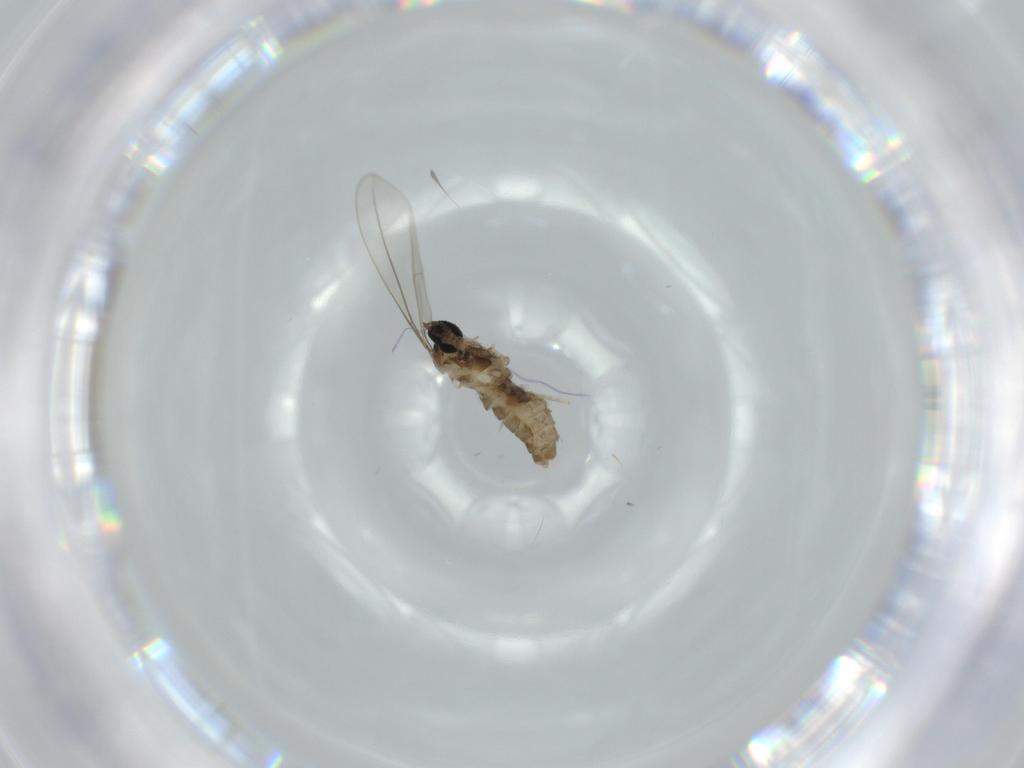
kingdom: Animalia
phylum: Arthropoda
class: Insecta
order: Diptera
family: Cecidomyiidae
